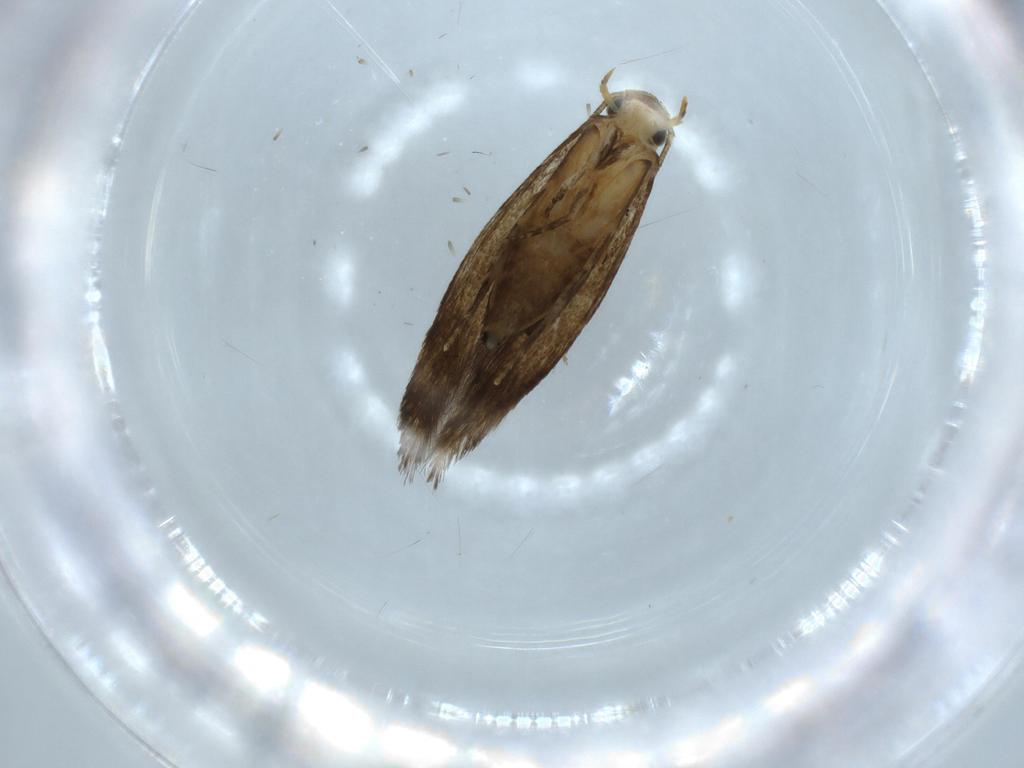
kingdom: Animalia
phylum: Arthropoda
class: Insecta
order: Lepidoptera
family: Tineidae
